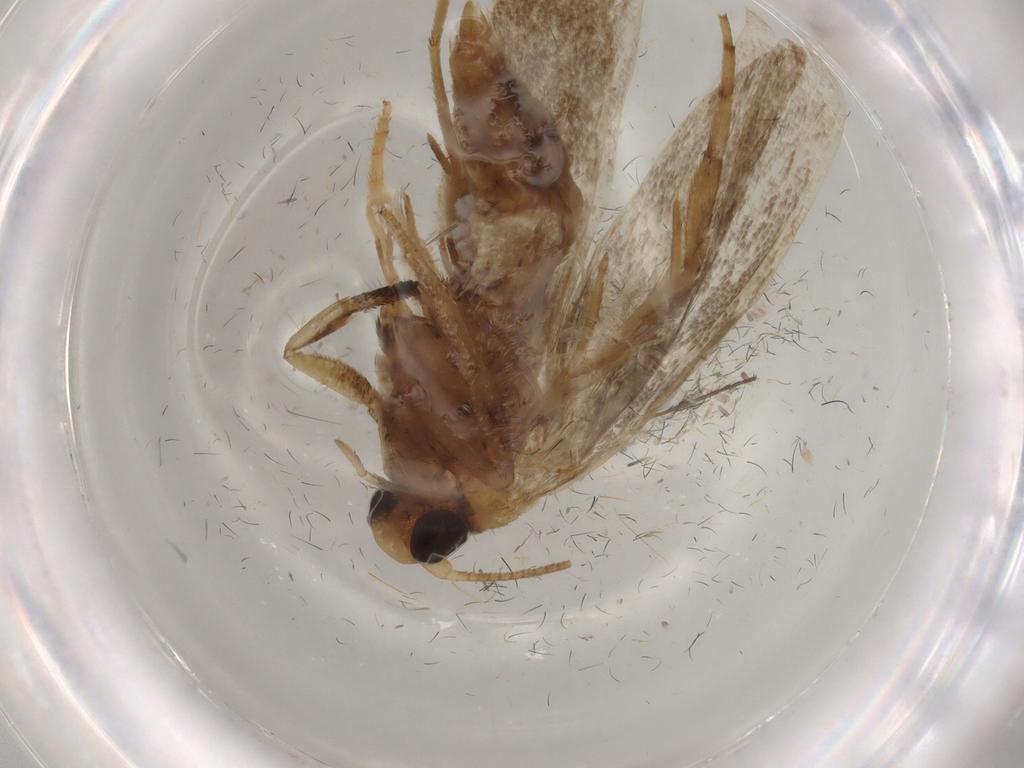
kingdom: Animalia
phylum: Arthropoda
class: Insecta
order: Lepidoptera
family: Yponomeutidae
